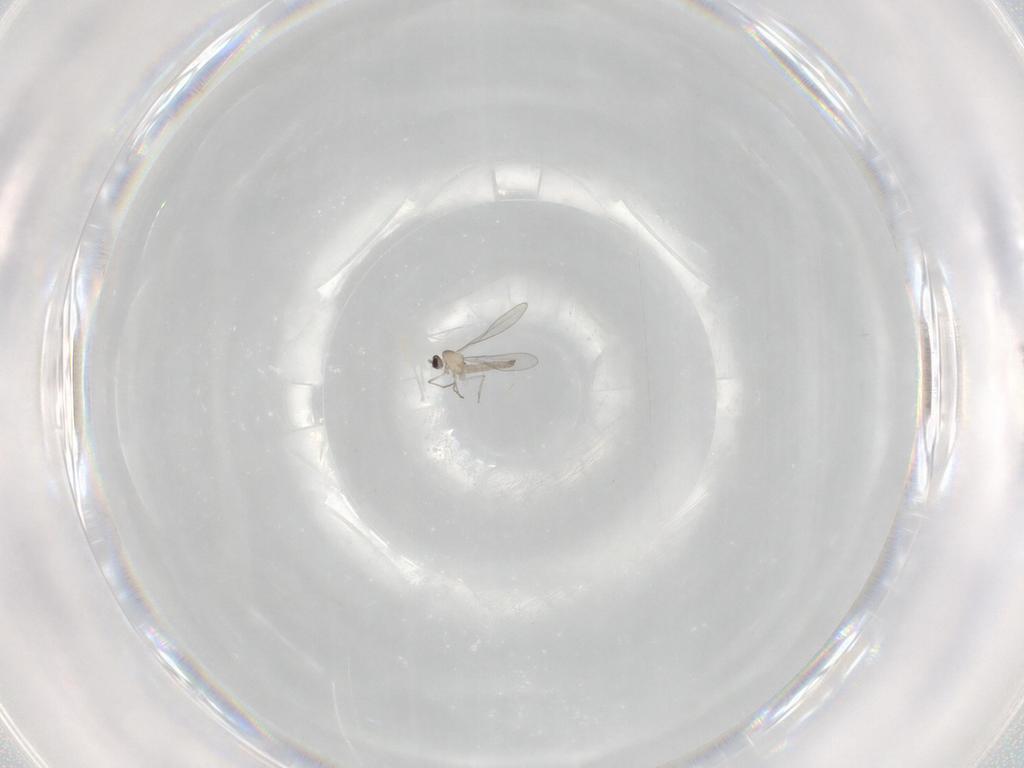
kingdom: Animalia
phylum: Arthropoda
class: Insecta
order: Diptera
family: Cecidomyiidae
